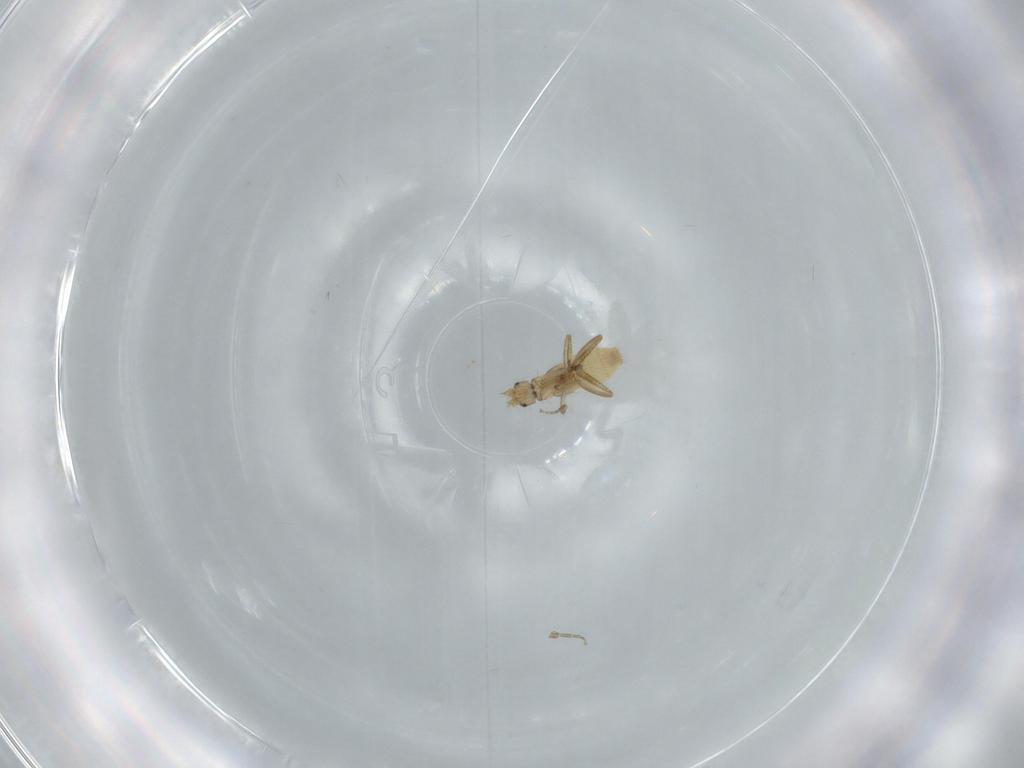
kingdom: Animalia
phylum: Arthropoda
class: Insecta
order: Diptera
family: Phoridae
